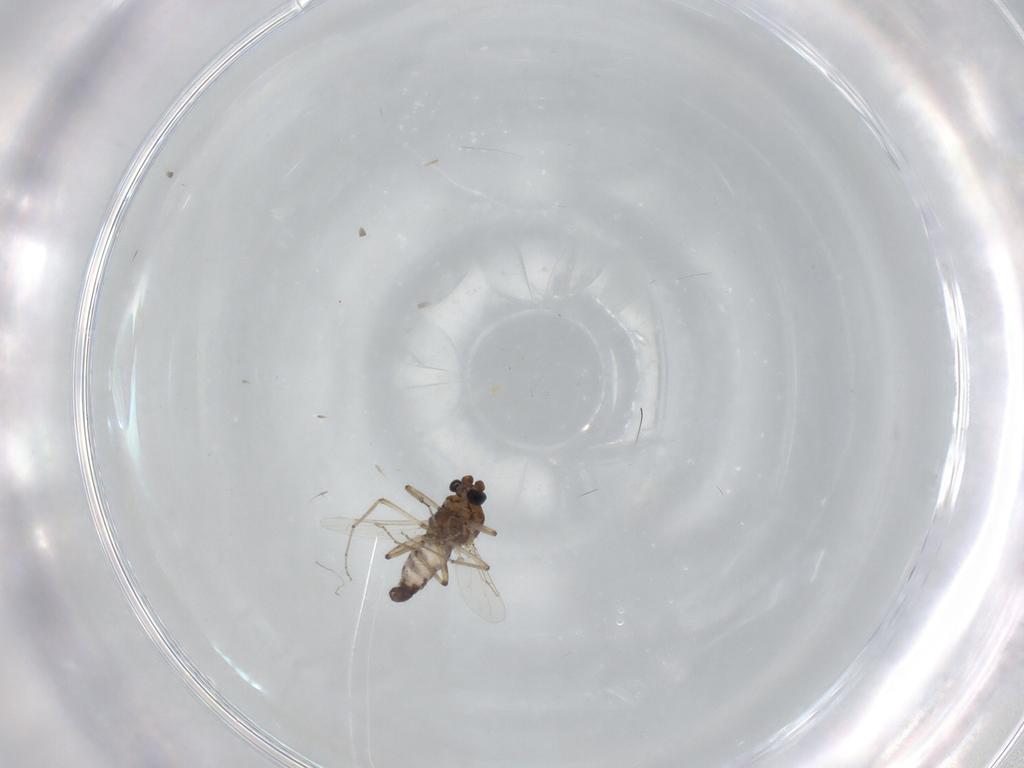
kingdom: Animalia
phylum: Arthropoda
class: Insecta
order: Diptera
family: Ceratopogonidae
